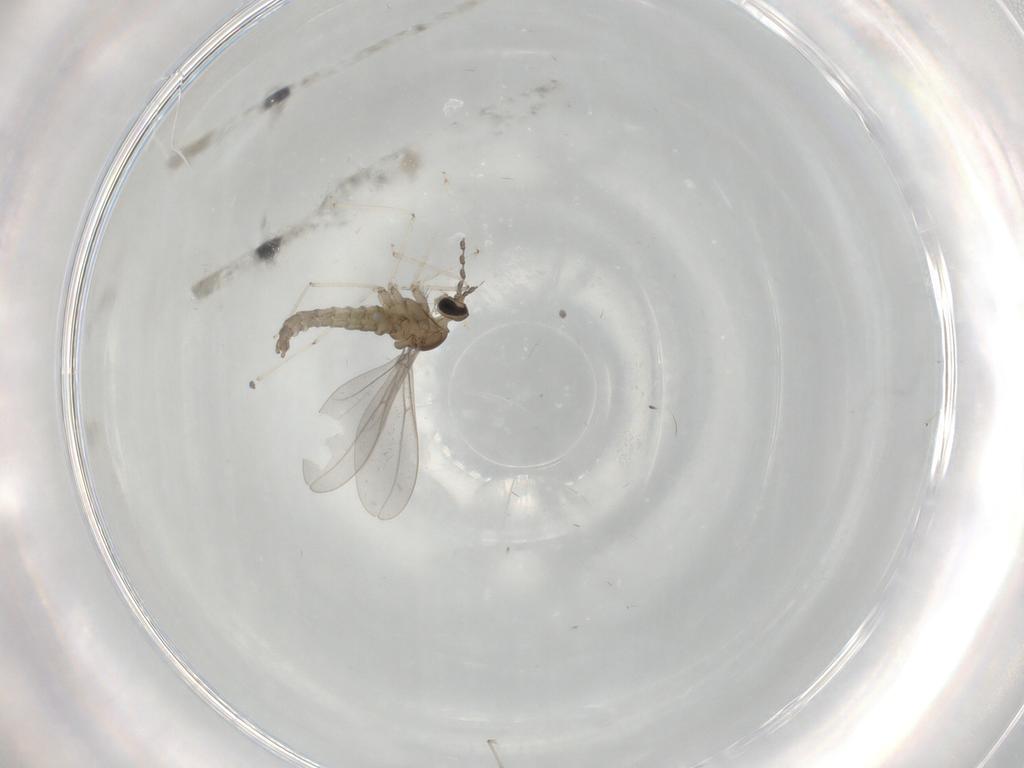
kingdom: Animalia
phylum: Arthropoda
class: Insecta
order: Diptera
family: Cecidomyiidae
